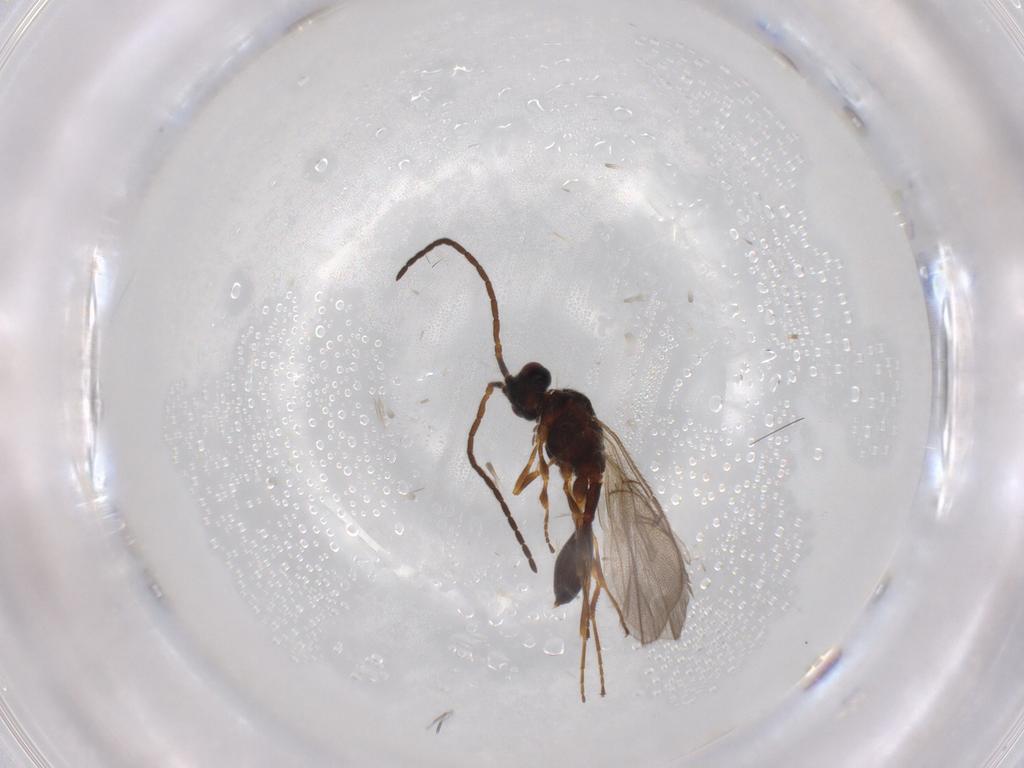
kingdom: Animalia
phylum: Arthropoda
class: Insecta
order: Hymenoptera
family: Diapriidae
